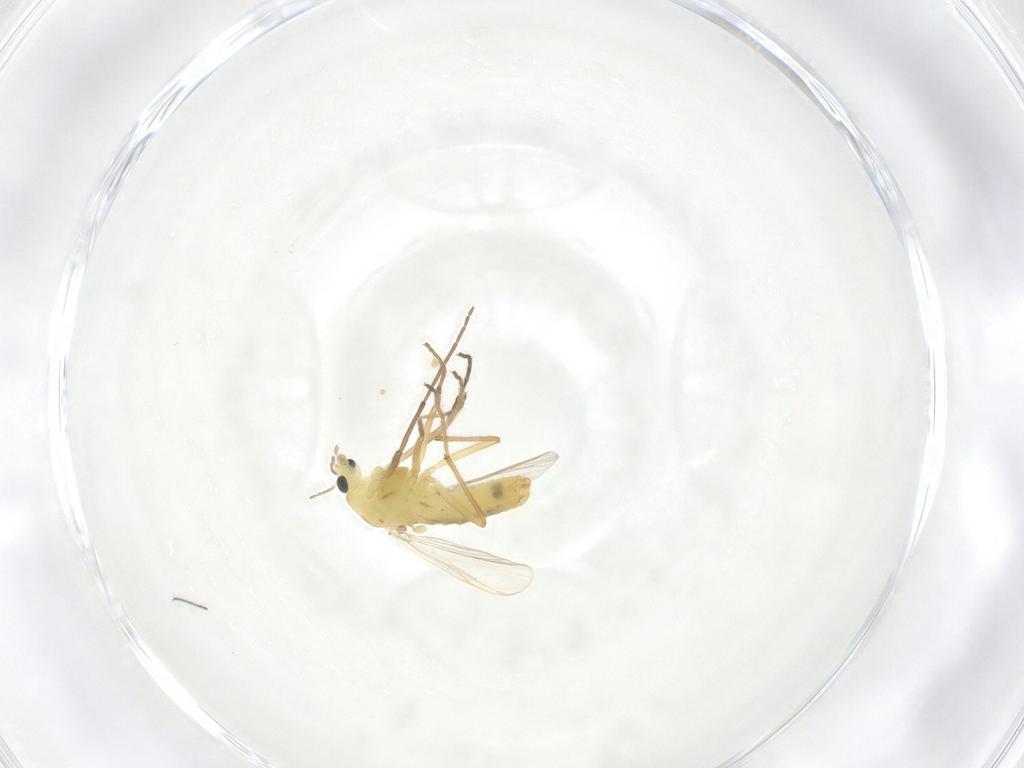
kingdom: Animalia
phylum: Arthropoda
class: Insecta
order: Diptera
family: Chironomidae
